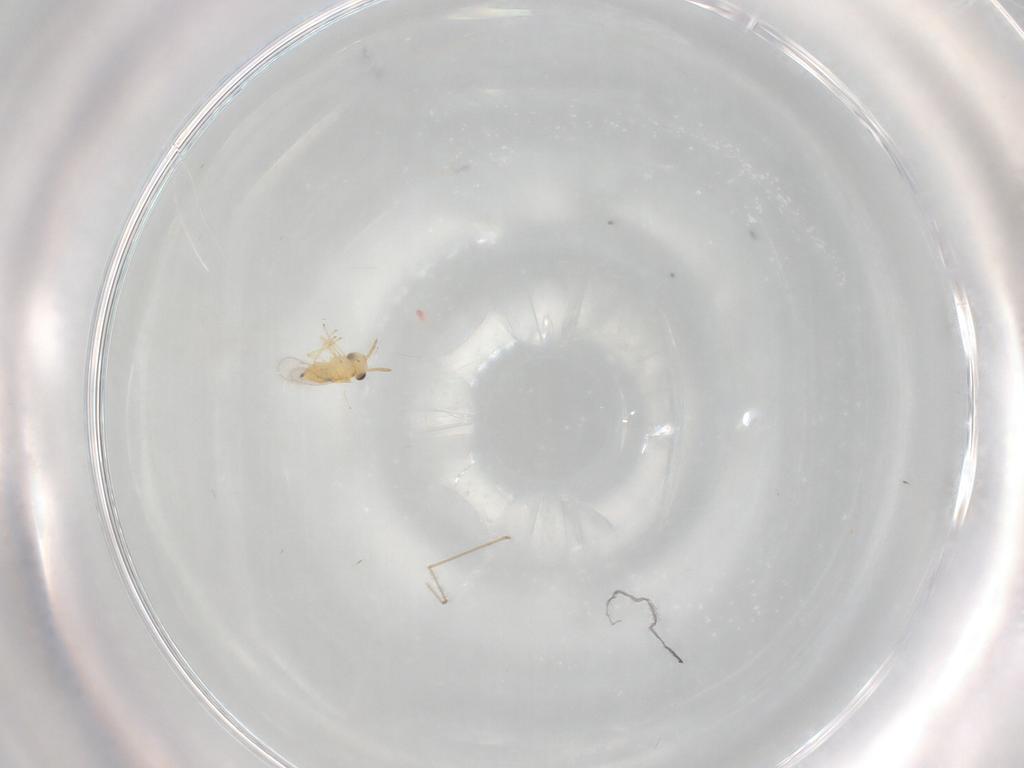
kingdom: Animalia
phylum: Arthropoda
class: Insecta
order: Hymenoptera
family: Aphelinidae
